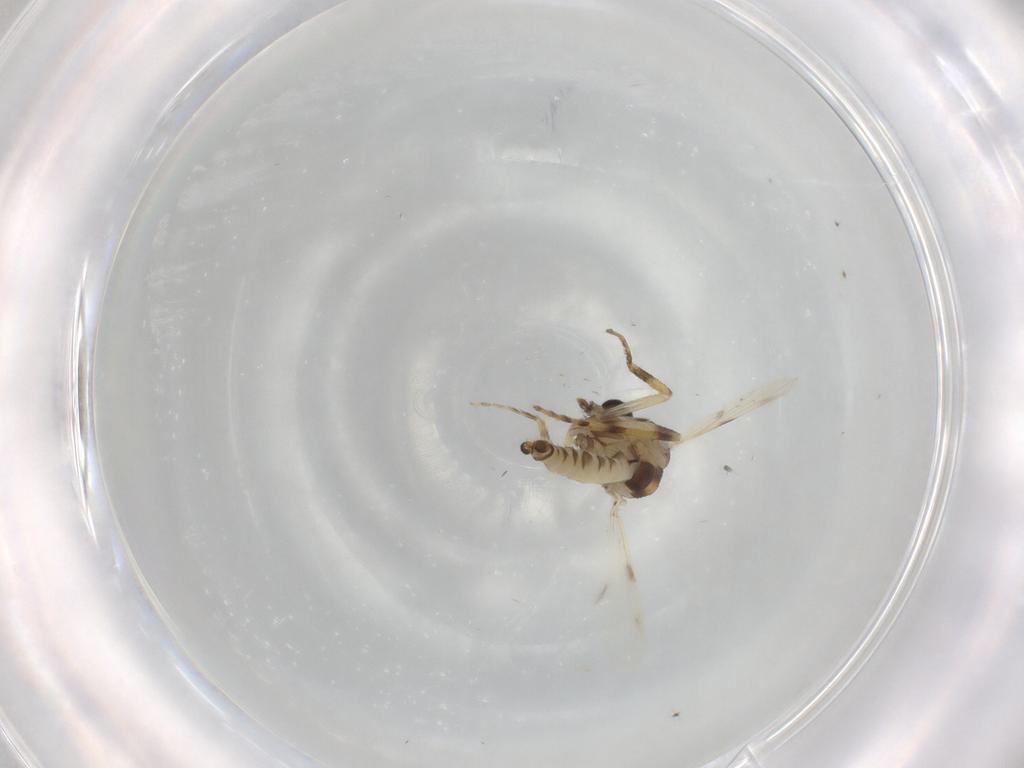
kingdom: Animalia
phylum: Arthropoda
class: Insecta
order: Diptera
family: Ceratopogonidae
